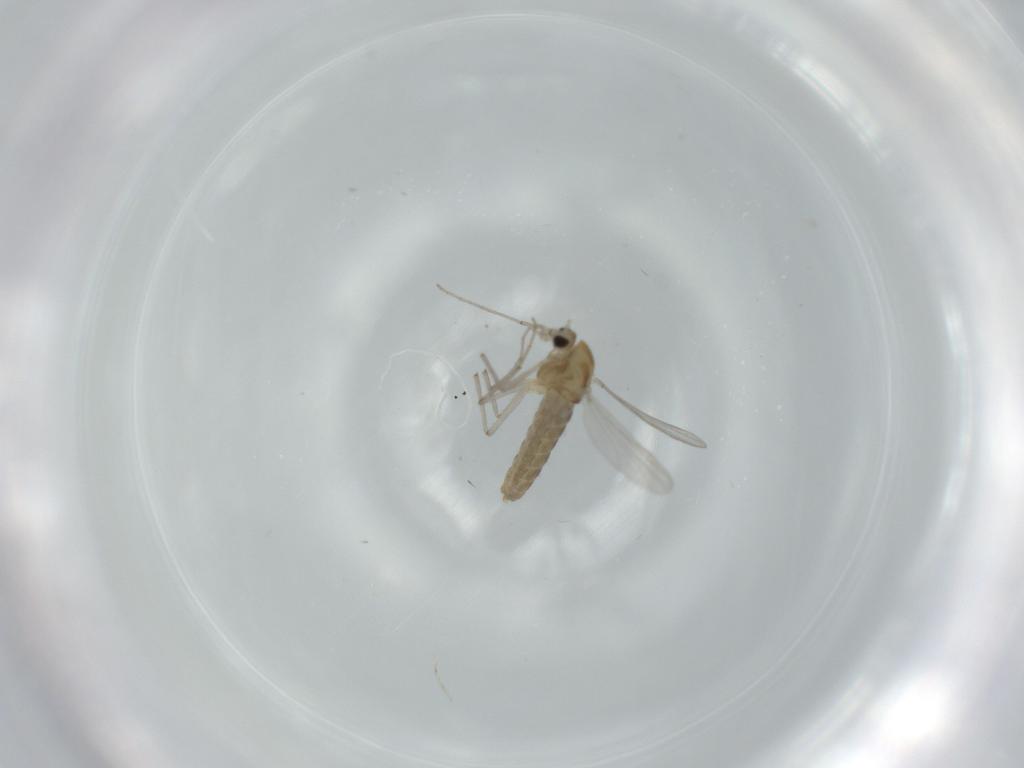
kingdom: Animalia
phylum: Arthropoda
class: Insecta
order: Diptera
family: Chironomidae
